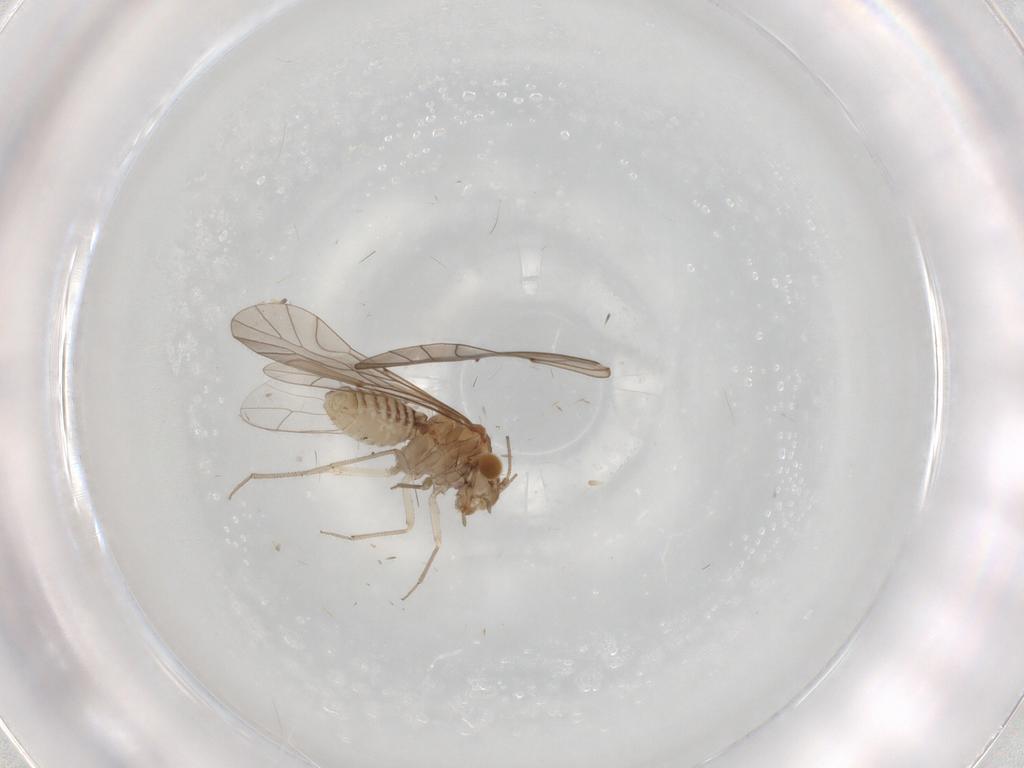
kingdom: Animalia
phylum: Arthropoda
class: Insecta
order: Psocodea
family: Lachesillidae
